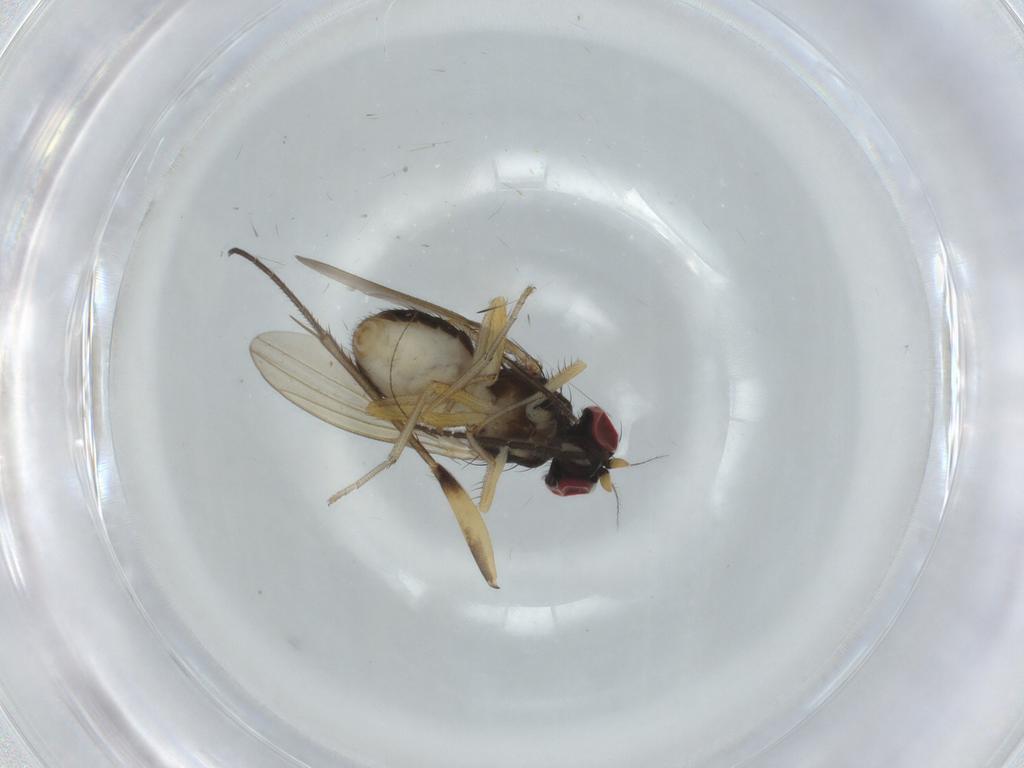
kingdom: Animalia
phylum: Arthropoda
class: Insecta
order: Diptera
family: Sciaridae
